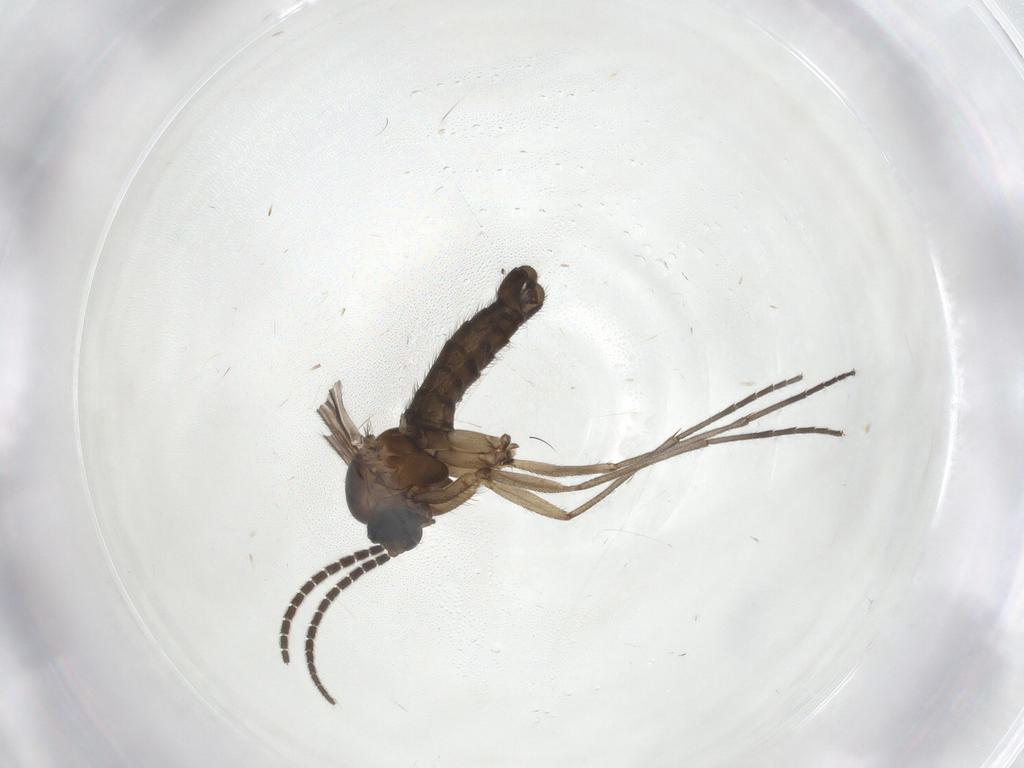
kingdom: Animalia
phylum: Arthropoda
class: Insecta
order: Diptera
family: Sciaridae
